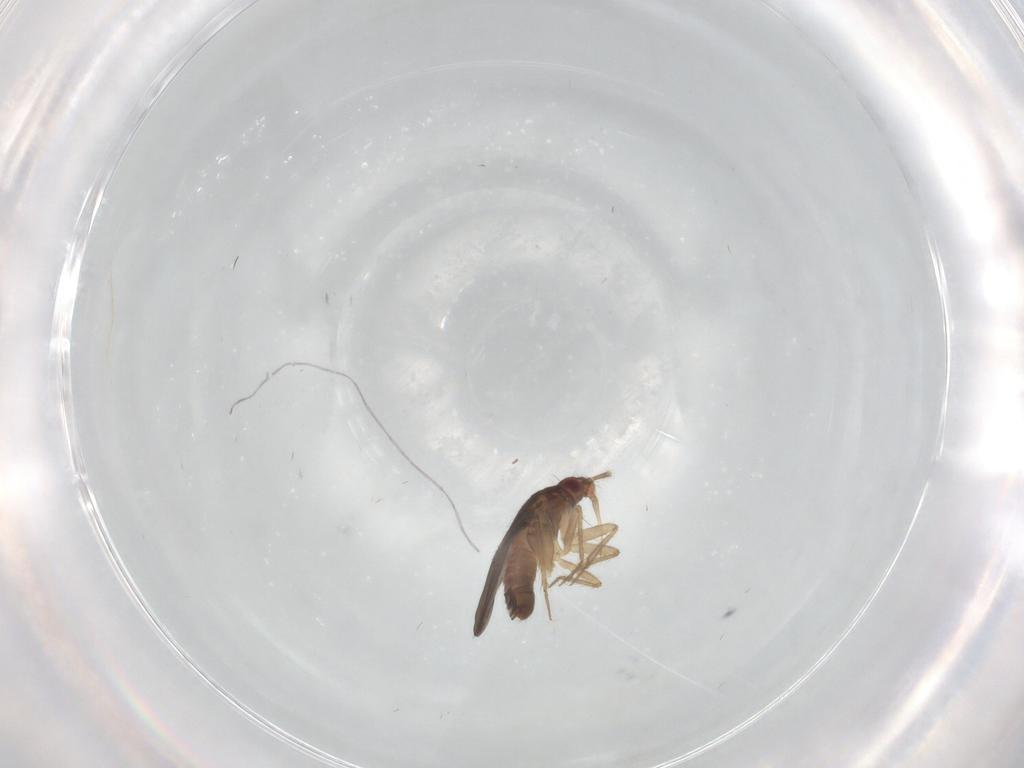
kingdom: Animalia
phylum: Arthropoda
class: Insecta
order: Hemiptera
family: Ceratocombidae
